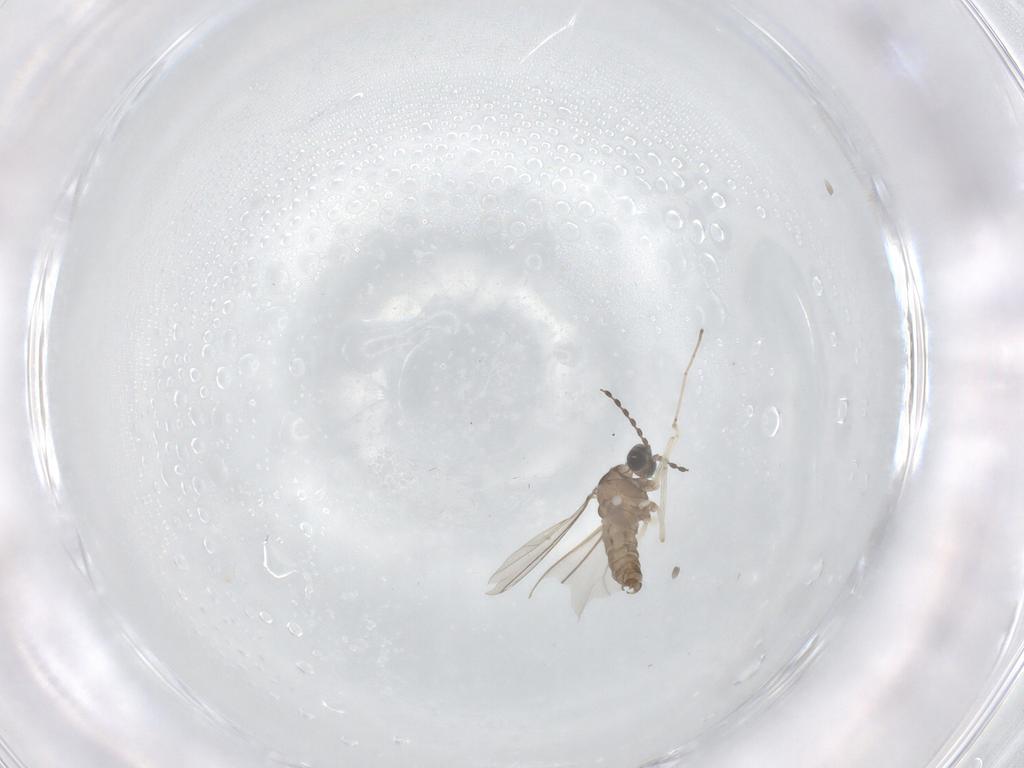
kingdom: Animalia
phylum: Arthropoda
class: Insecta
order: Diptera
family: Cecidomyiidae
